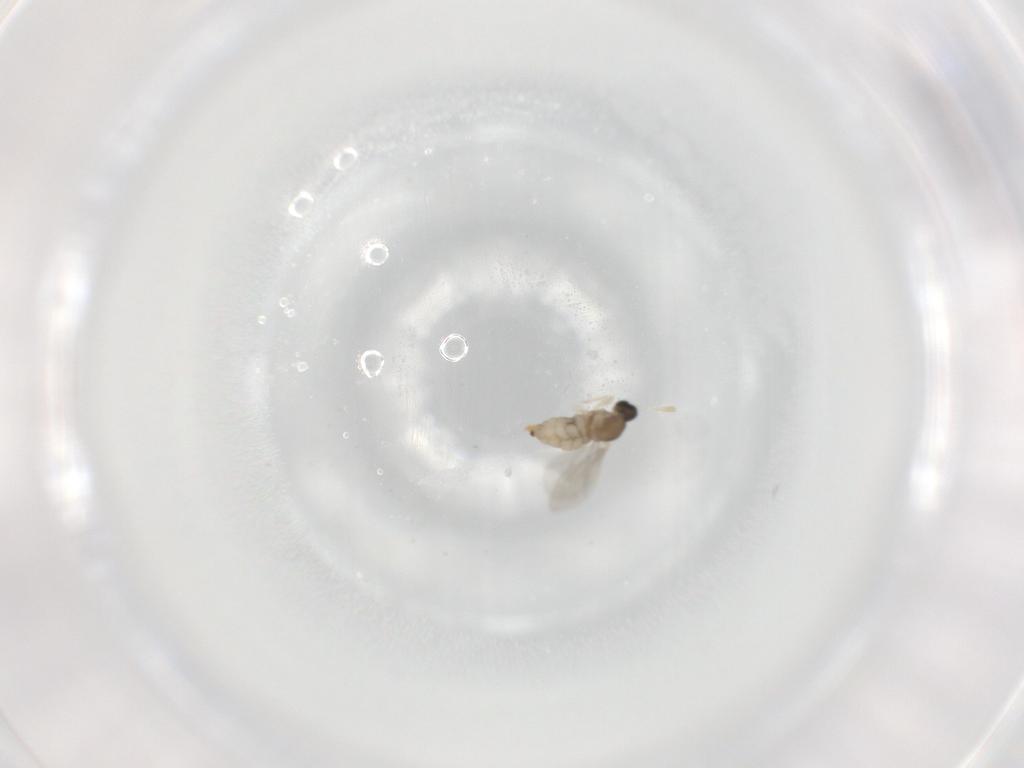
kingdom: Animalia
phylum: Arthropoda
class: Insecta
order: Diptera
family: Cecidomyiidae
